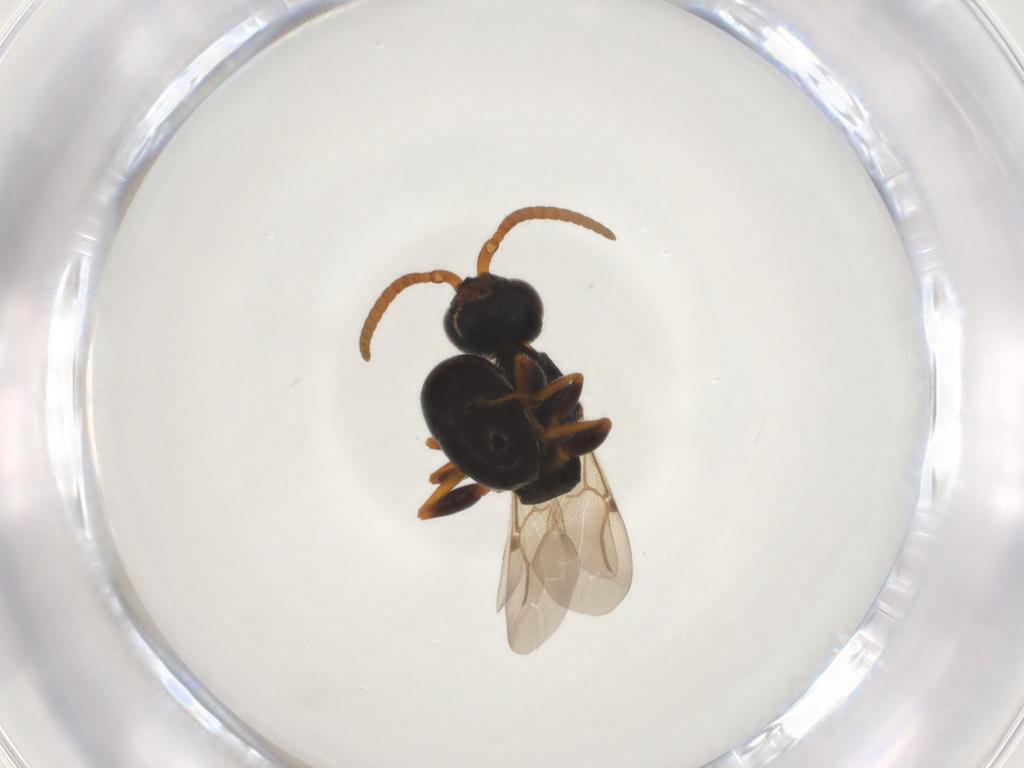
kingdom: Animalia
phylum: Arthropoda
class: Insecta
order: Hymenoptera
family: Bethylidae
